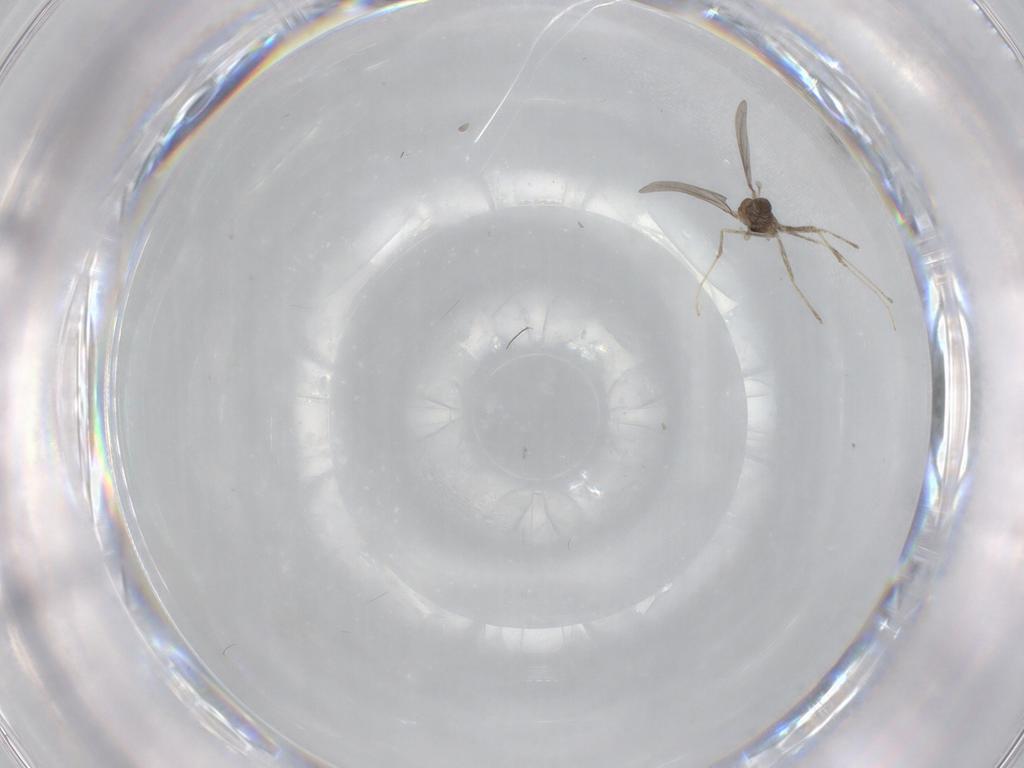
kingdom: Animalia
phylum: Arthropoda
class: Insecta
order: Diptera
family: Cecidomyiidae
